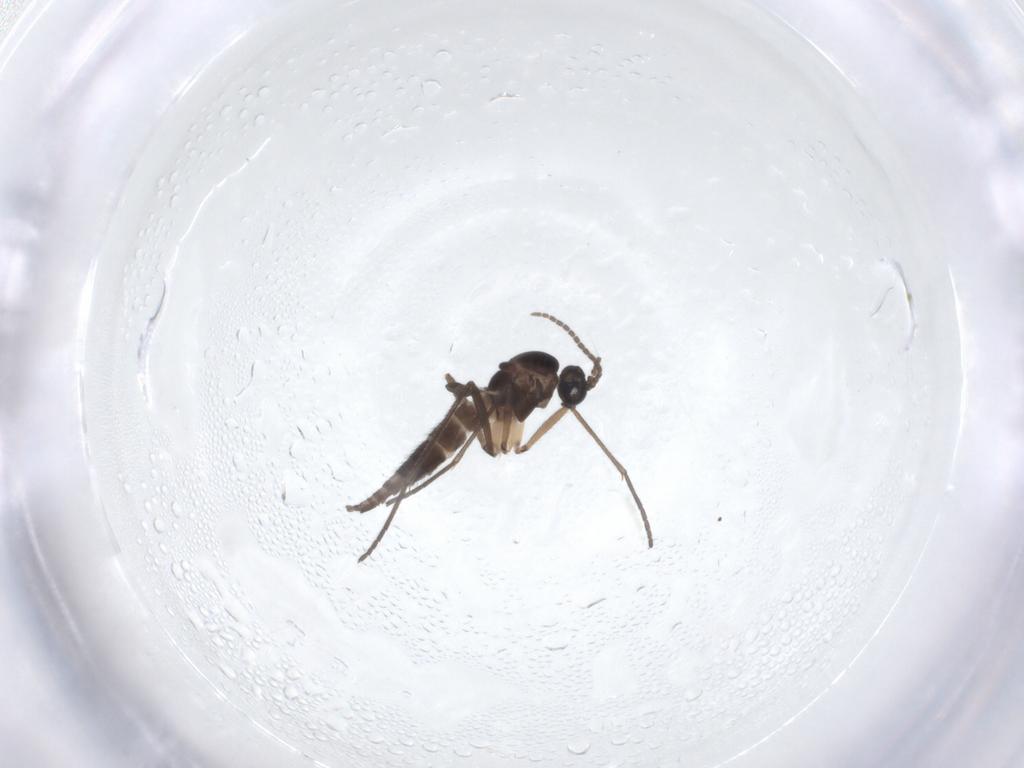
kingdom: Animalia
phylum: Arthropoda
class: Insecta
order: Diptera
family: Sciaridae
